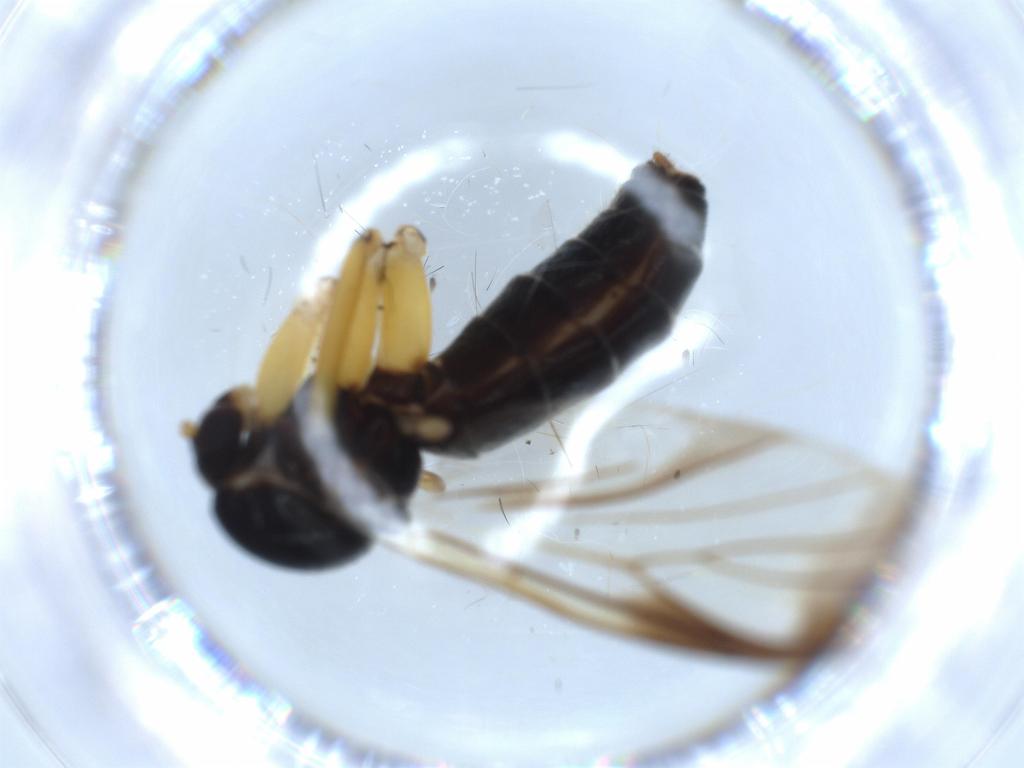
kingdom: Animalia
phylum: Arthropoda
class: Insecta
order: Diptera
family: Mycetophilidae
